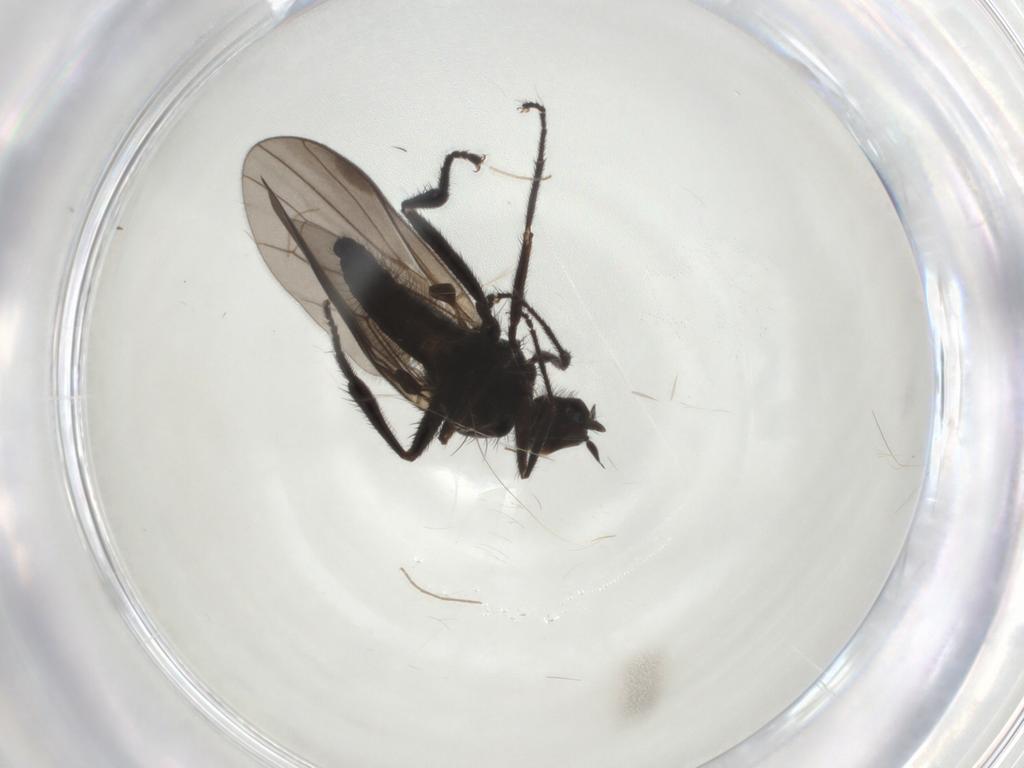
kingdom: Animalia
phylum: Arthropoda
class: Insecta
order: Diptera
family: Hybotidae
